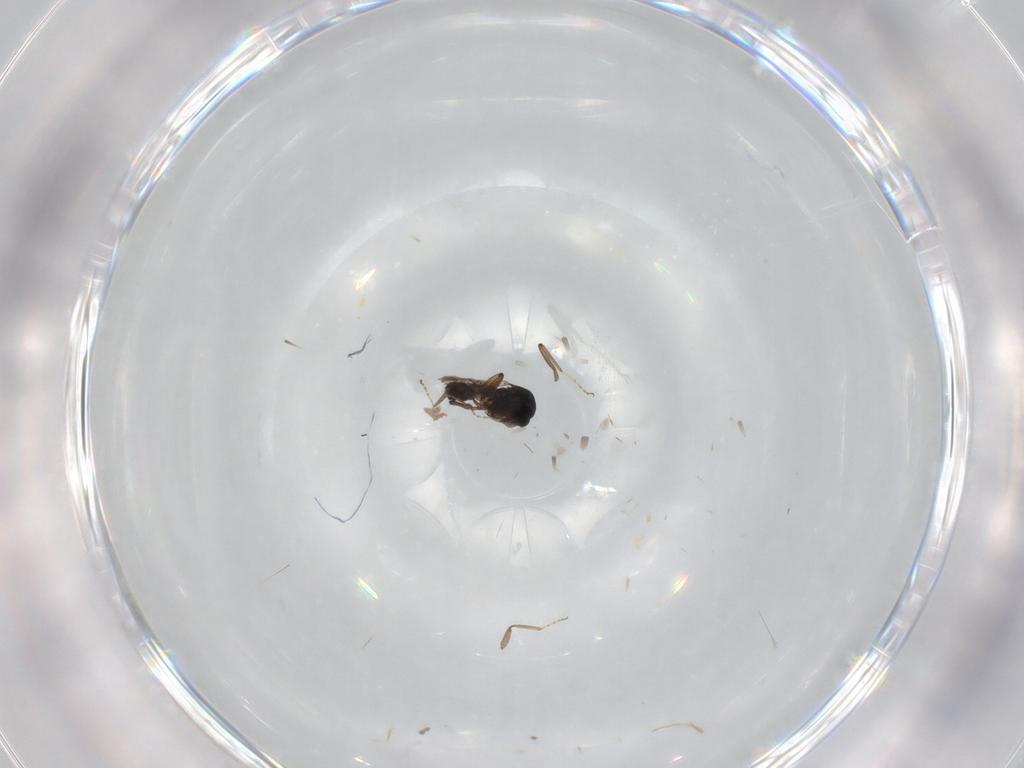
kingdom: Animalia
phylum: Arthropoda
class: Insecta
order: Diptera
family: Ceratopogonidae
